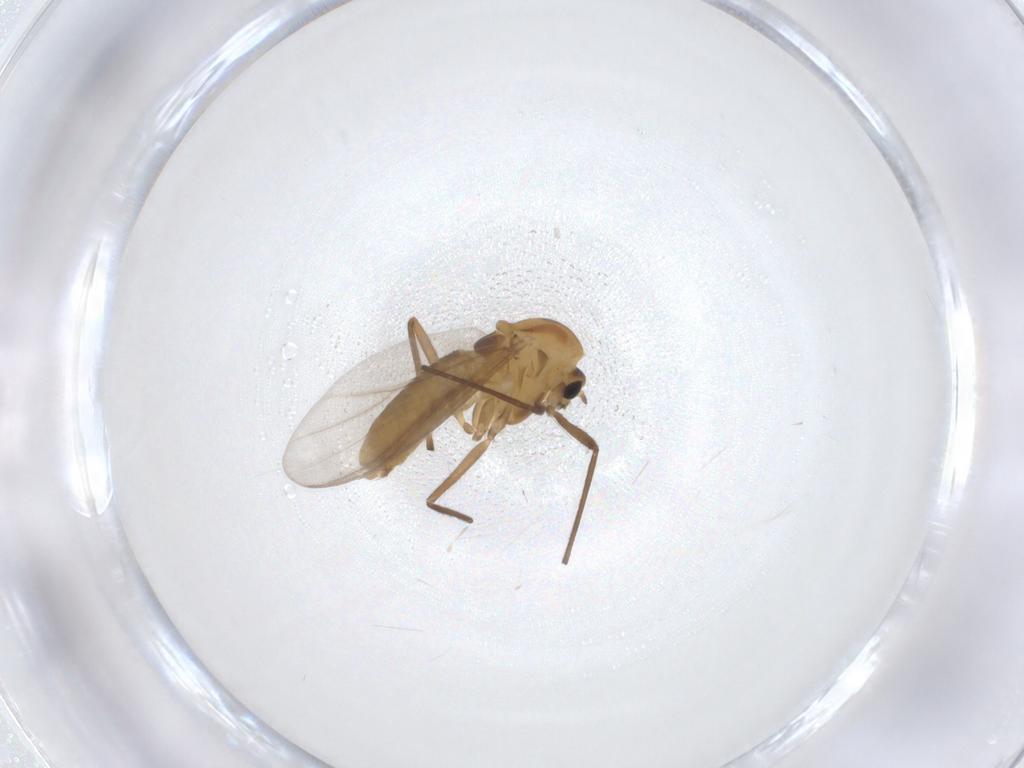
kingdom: Animalia
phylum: Arthropoda
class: Insecta
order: Diptera
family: Chironomidae
